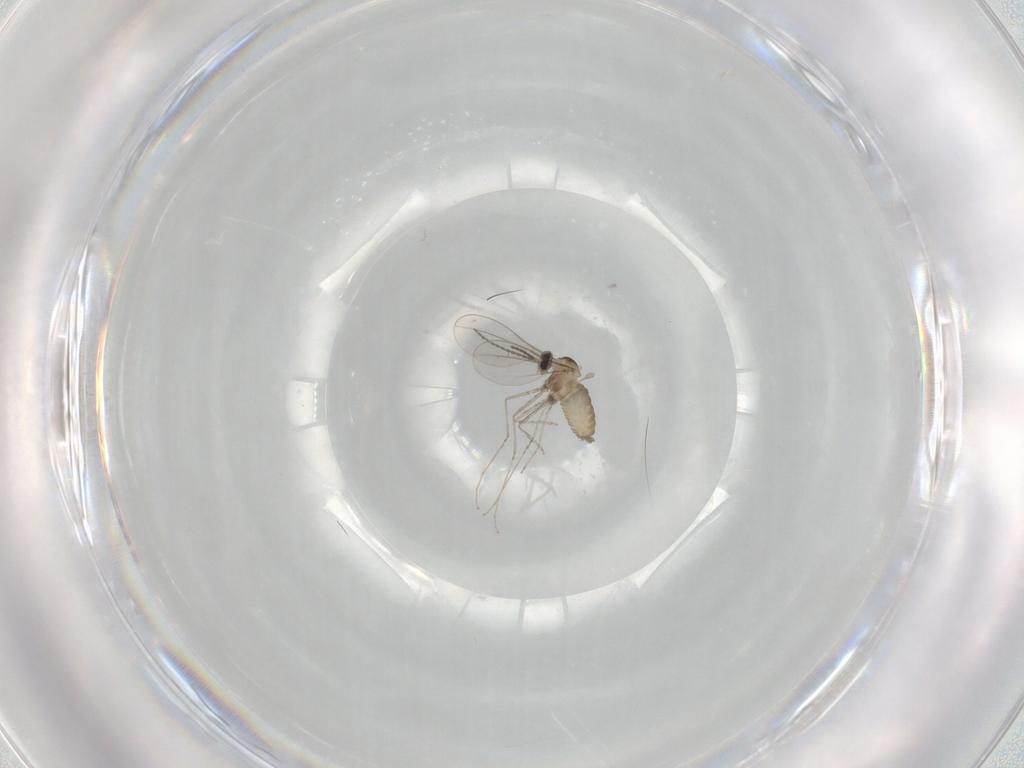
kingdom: Animalia
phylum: Arthropoda
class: Insecta
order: Diptera
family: Cecidomyiidae
